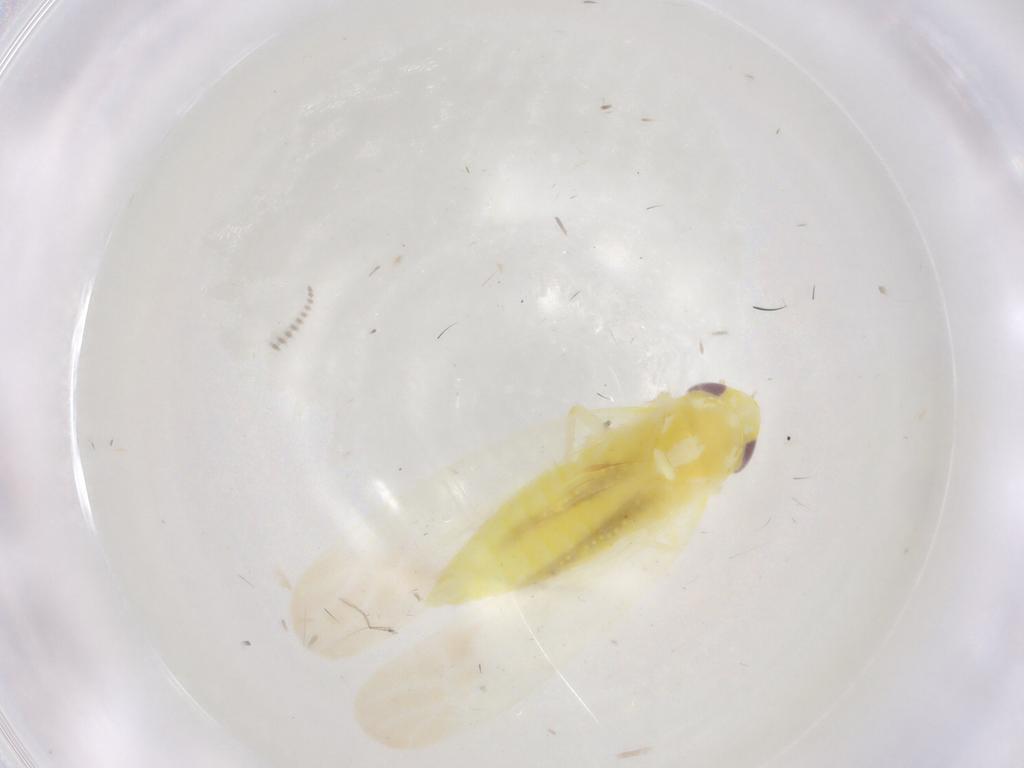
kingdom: Animalia
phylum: Arthropoda
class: Insecta
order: Hemiptera
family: Cicadellidae
